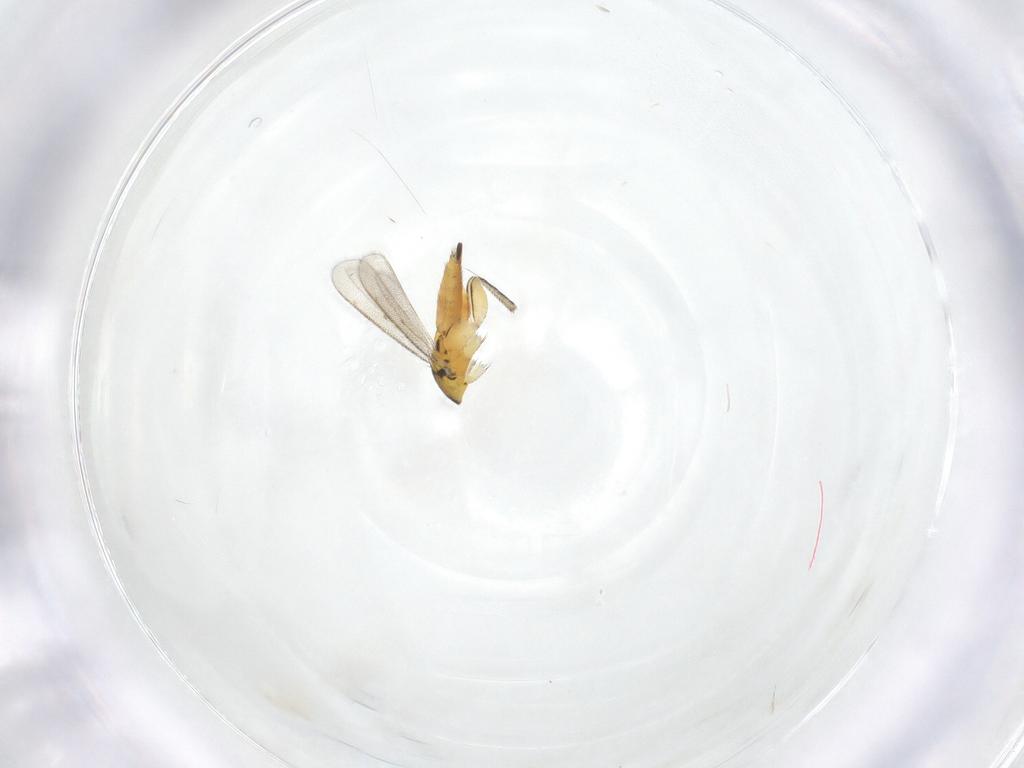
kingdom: Animalia
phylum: Arthropoda
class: Insecta
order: Hymenoptera
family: Eulophidae
